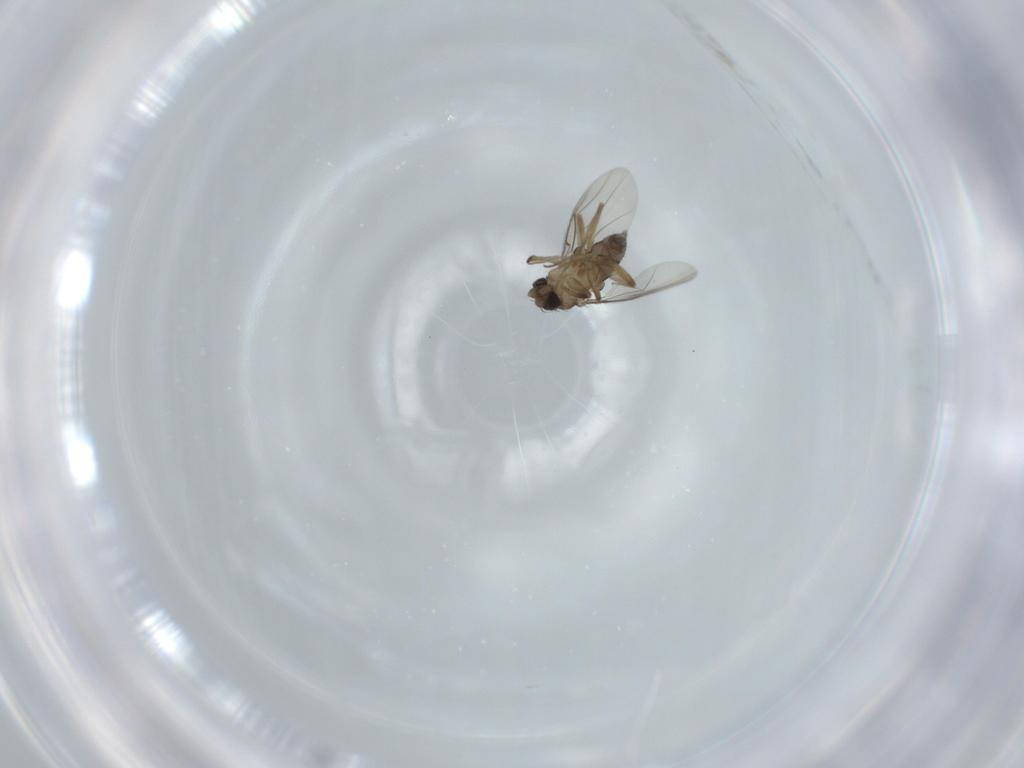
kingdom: Animalia
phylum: Arthropoda
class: Insecta
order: Diptera
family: Phoridae
